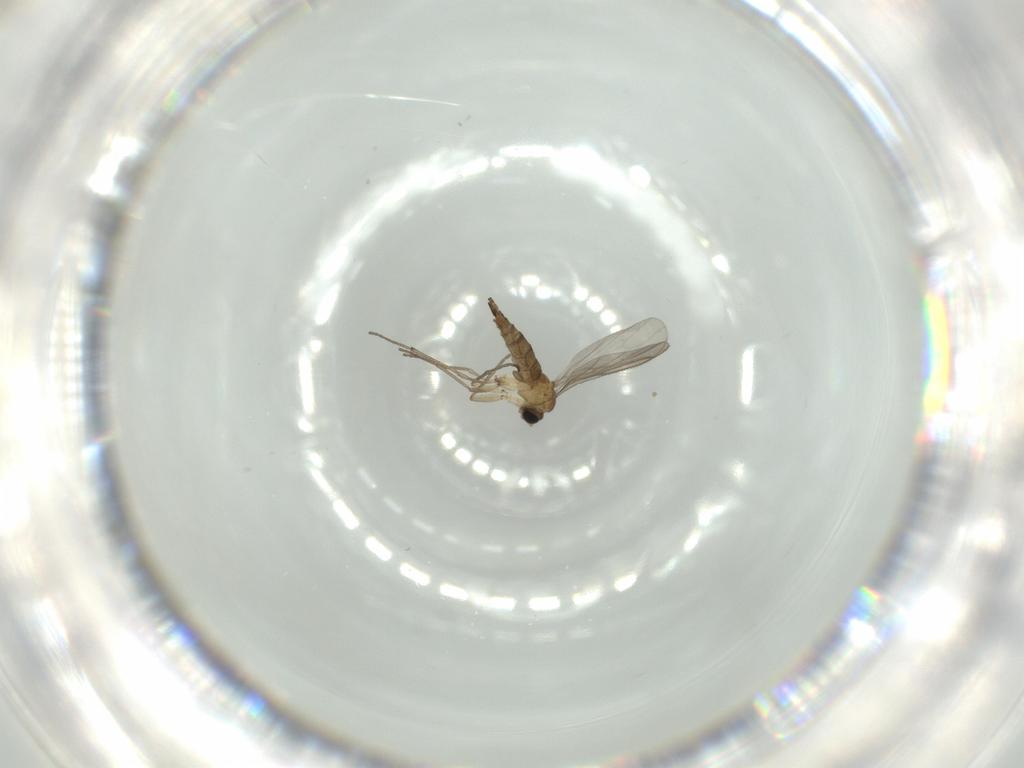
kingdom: Animalia
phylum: Arthropoda
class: Insecta
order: Diptera
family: Sciaridae
